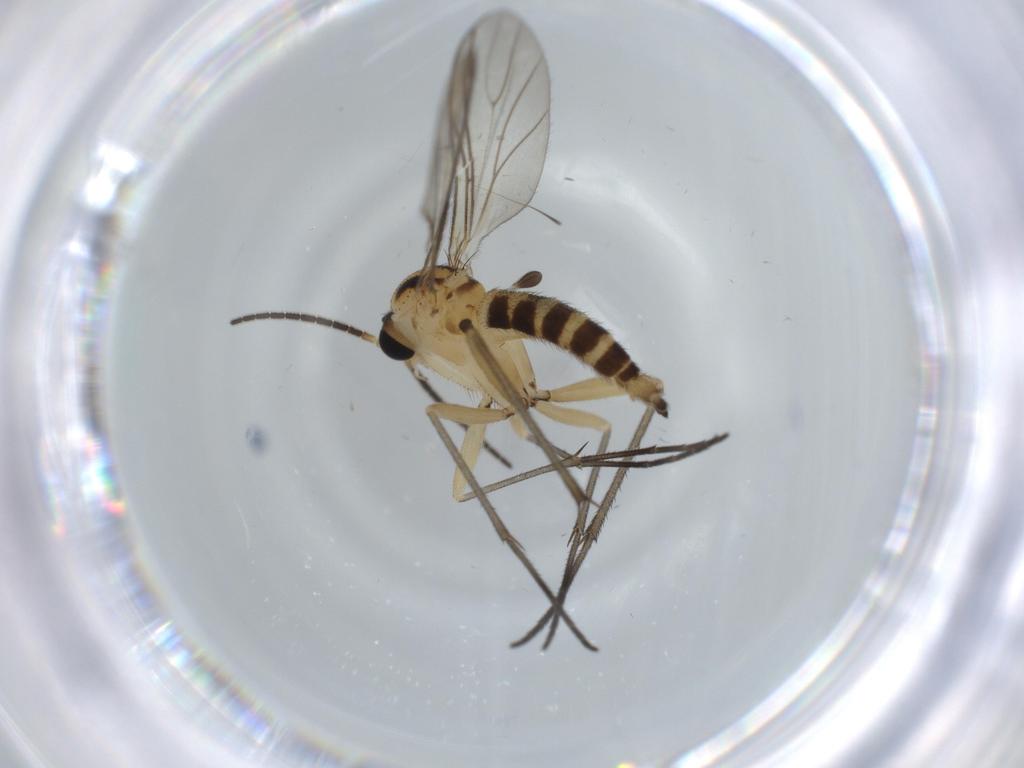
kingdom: Animalia
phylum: Arthropoda
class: Insecta
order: Diptera
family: Sciaridae
